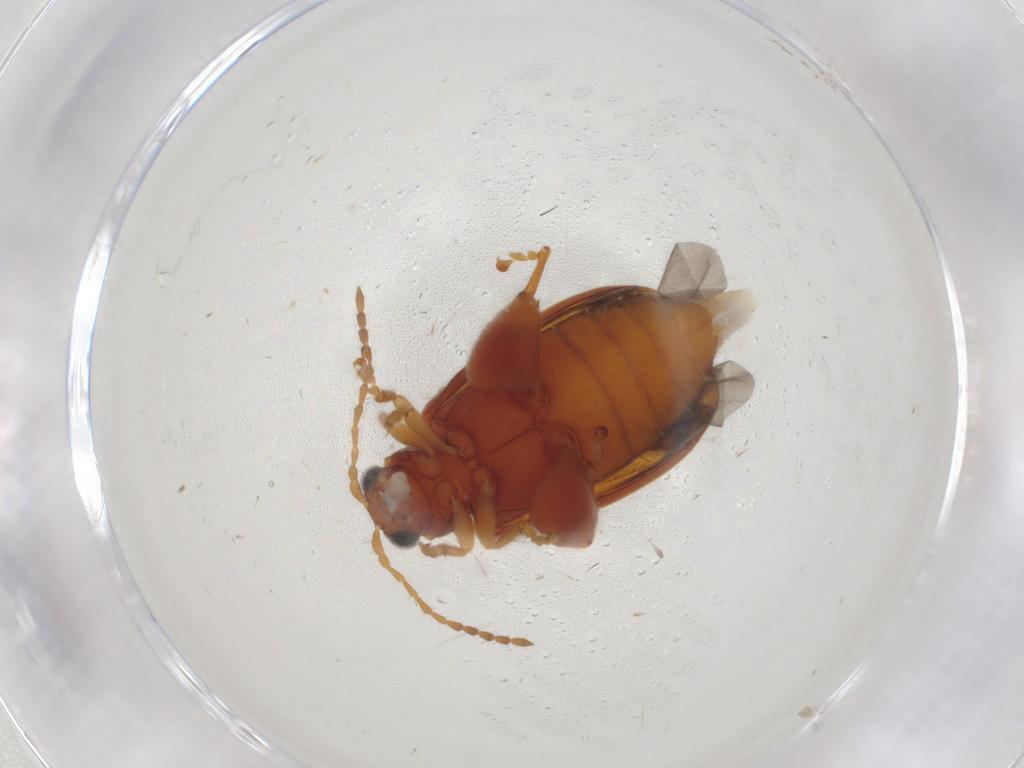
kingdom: Animalia
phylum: Arthropoda
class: Insecta
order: Coleoptera
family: Chrysomelidae
